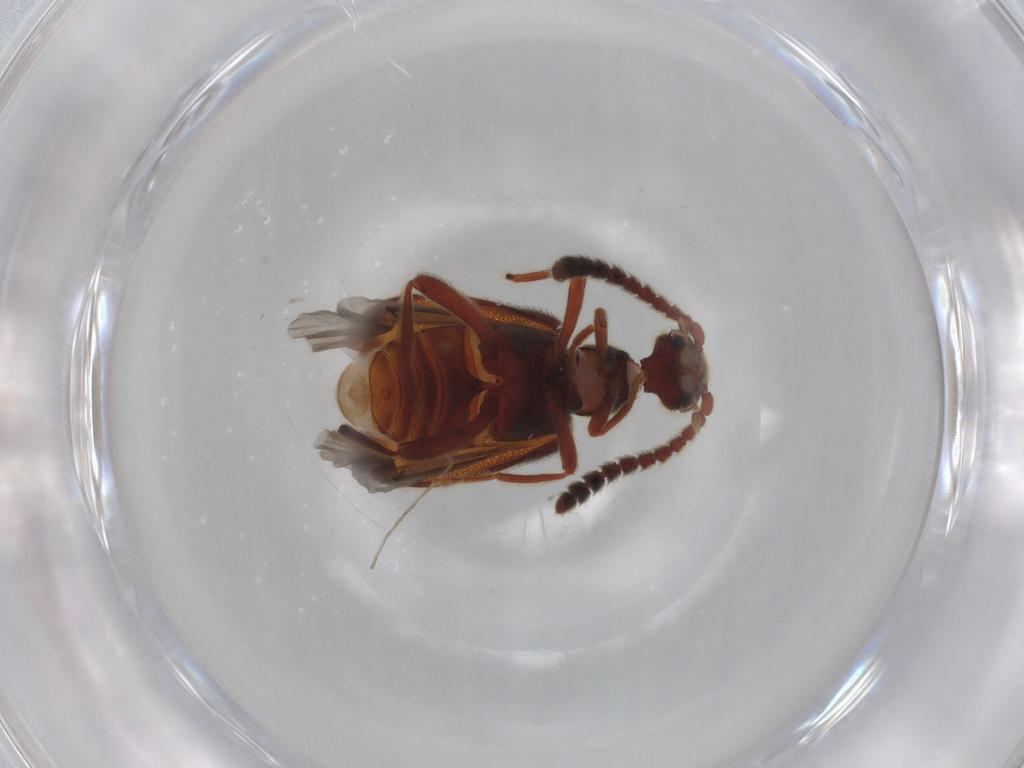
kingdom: Animalia
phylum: Arthropoda
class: Insecta
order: Coleoptera
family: Aderidae
